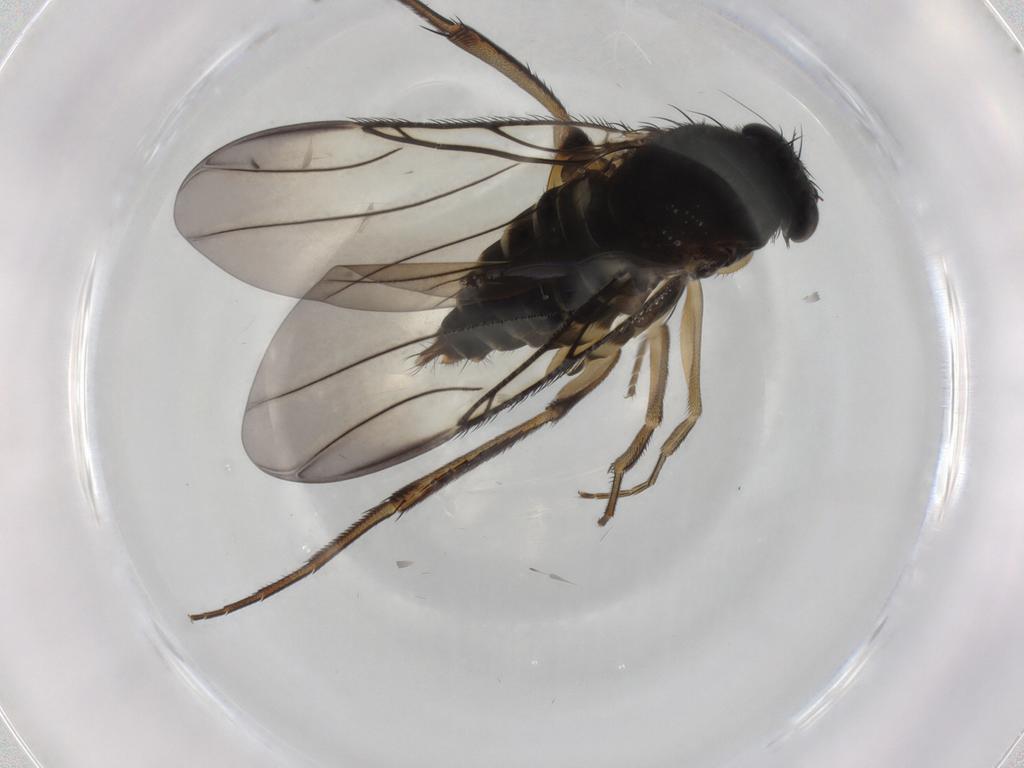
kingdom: Animalia
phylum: Arthropoda
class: Insecta
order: Diptera
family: Phoridae
